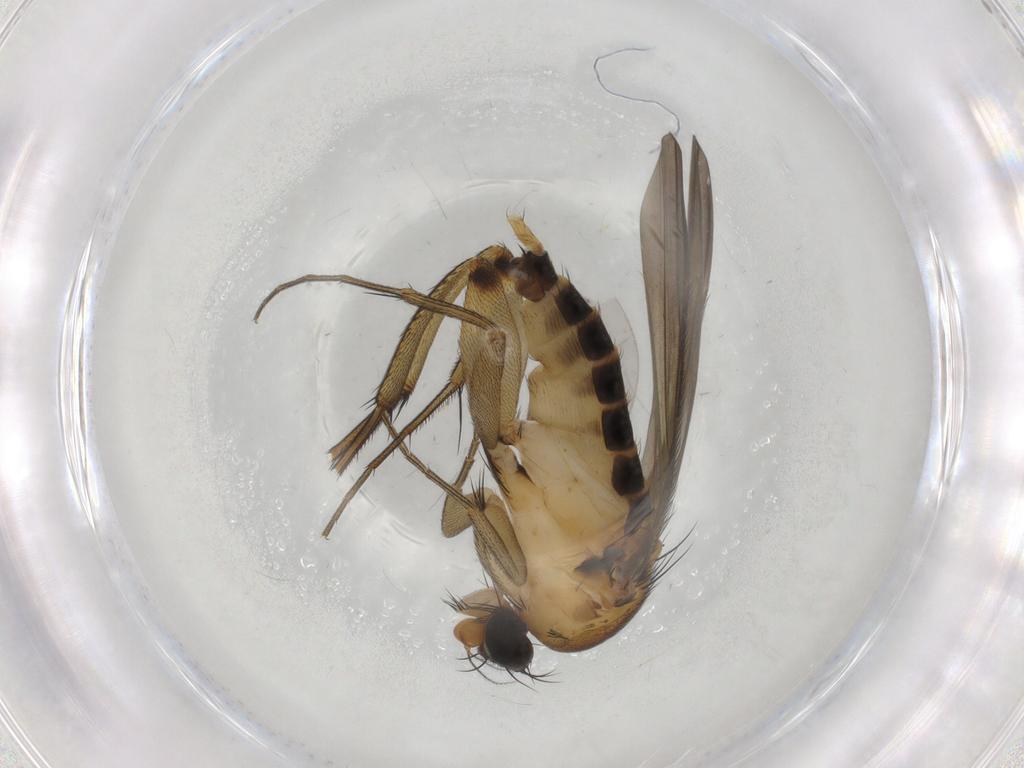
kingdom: Animalia
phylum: Arthropoda
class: Insecta
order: Diptera
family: Phoridae
